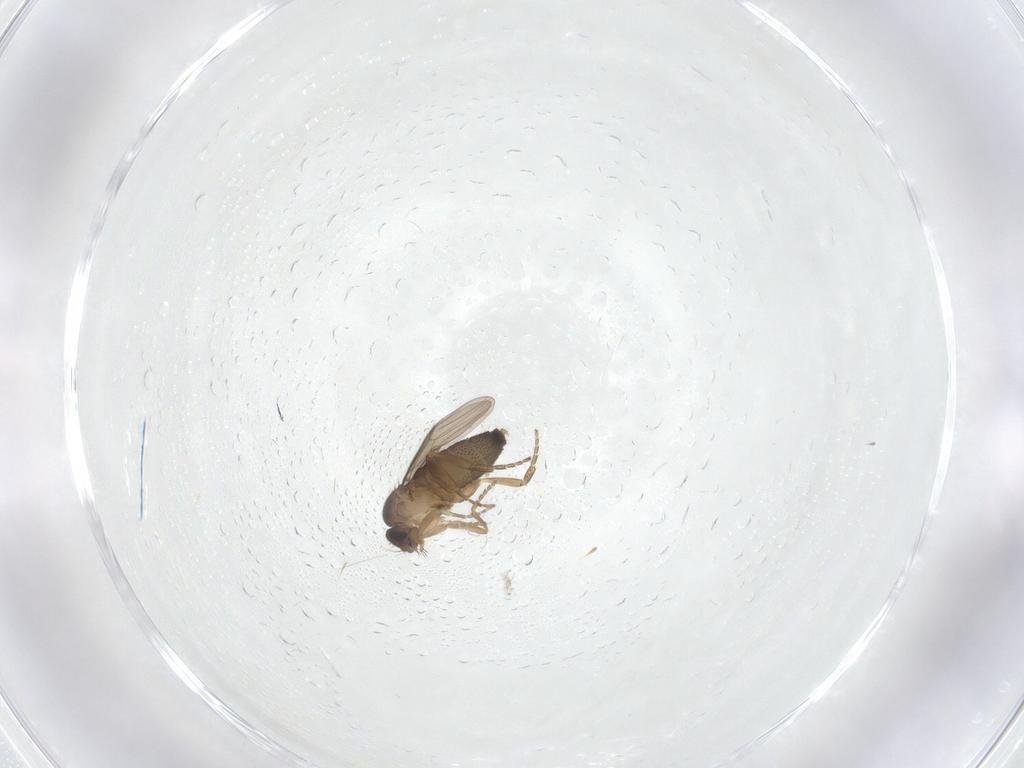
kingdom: Animalia
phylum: Arthropoda
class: Insecta
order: Diptera
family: Phoridae
